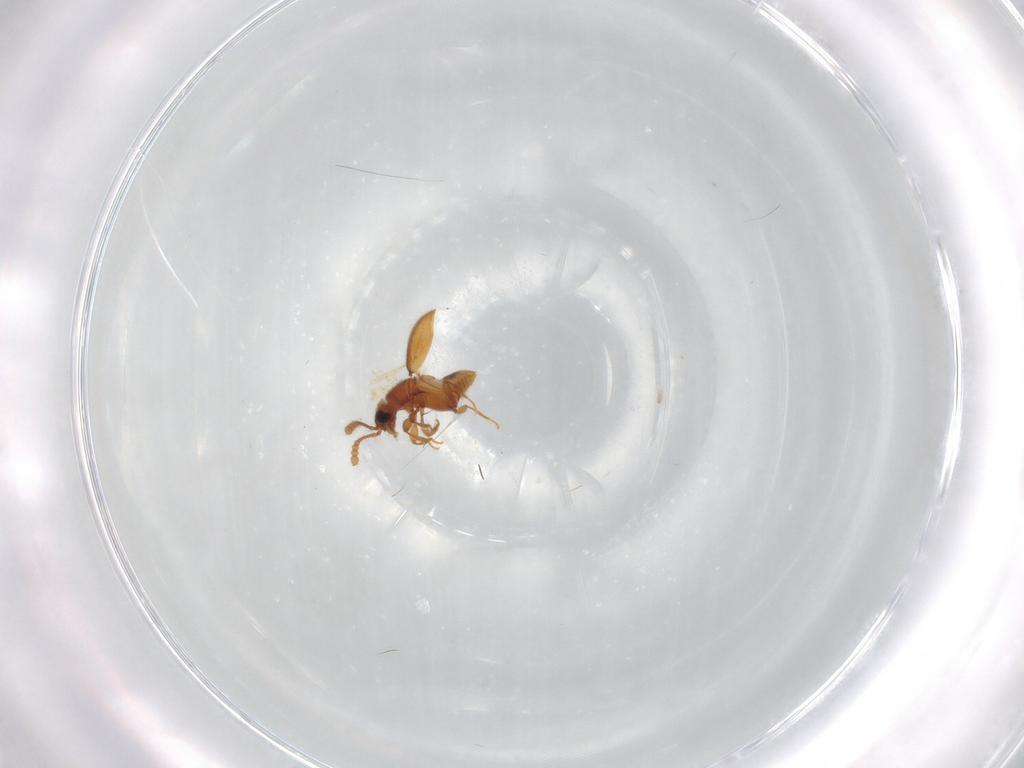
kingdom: Animalia
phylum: Arthropoda
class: Insecta
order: Coleoptera
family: Staphylinidae
